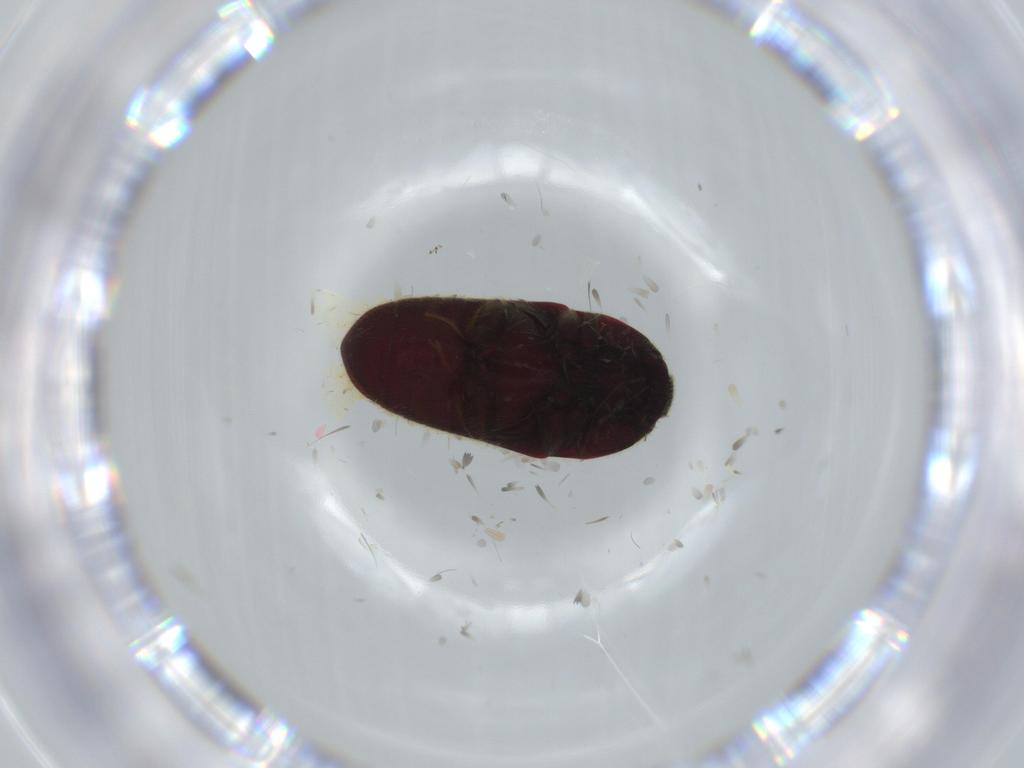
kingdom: Animalia
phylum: Arthropoda
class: Insecta
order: Coleoptera
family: Throscidae
